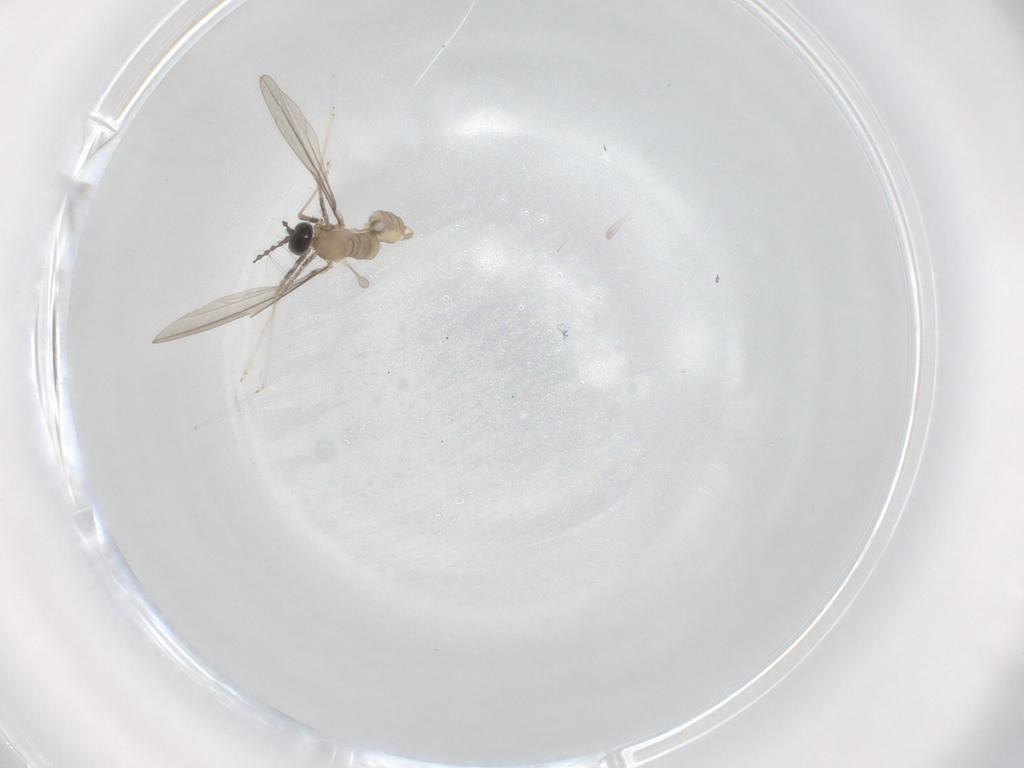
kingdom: Animalia
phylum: Arthropoda
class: Insecta
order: Diptera
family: Cecidomyiidae
